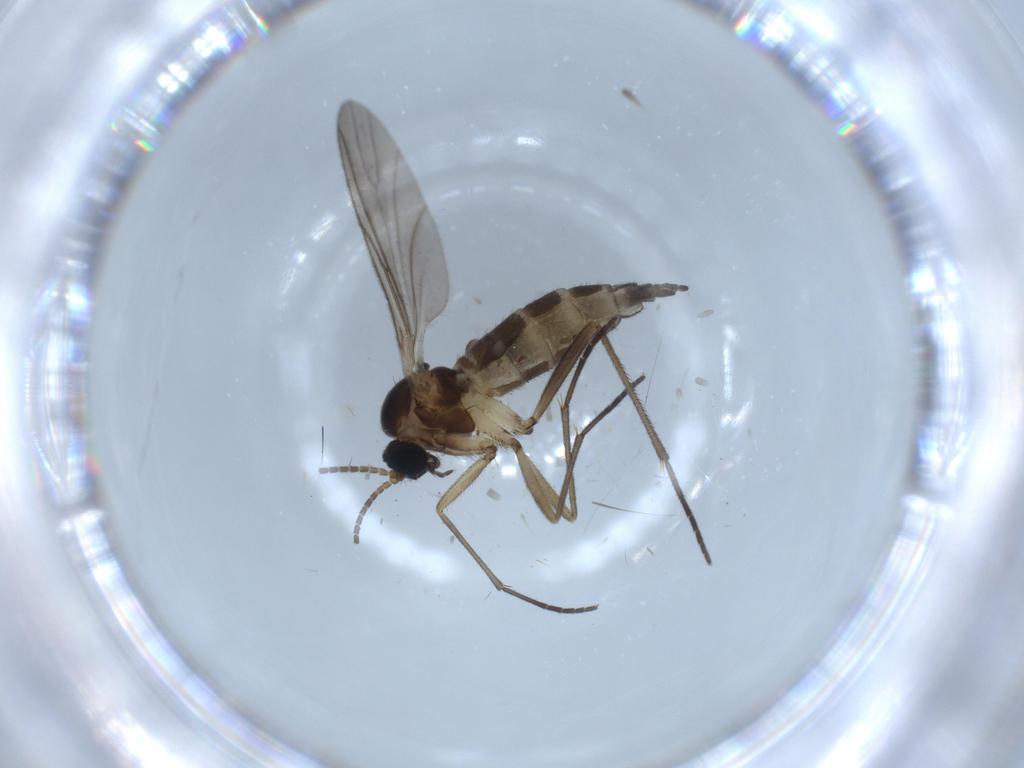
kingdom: Animalia
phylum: Arthropoda
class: Insecta
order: Diptera
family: Sciaridae
